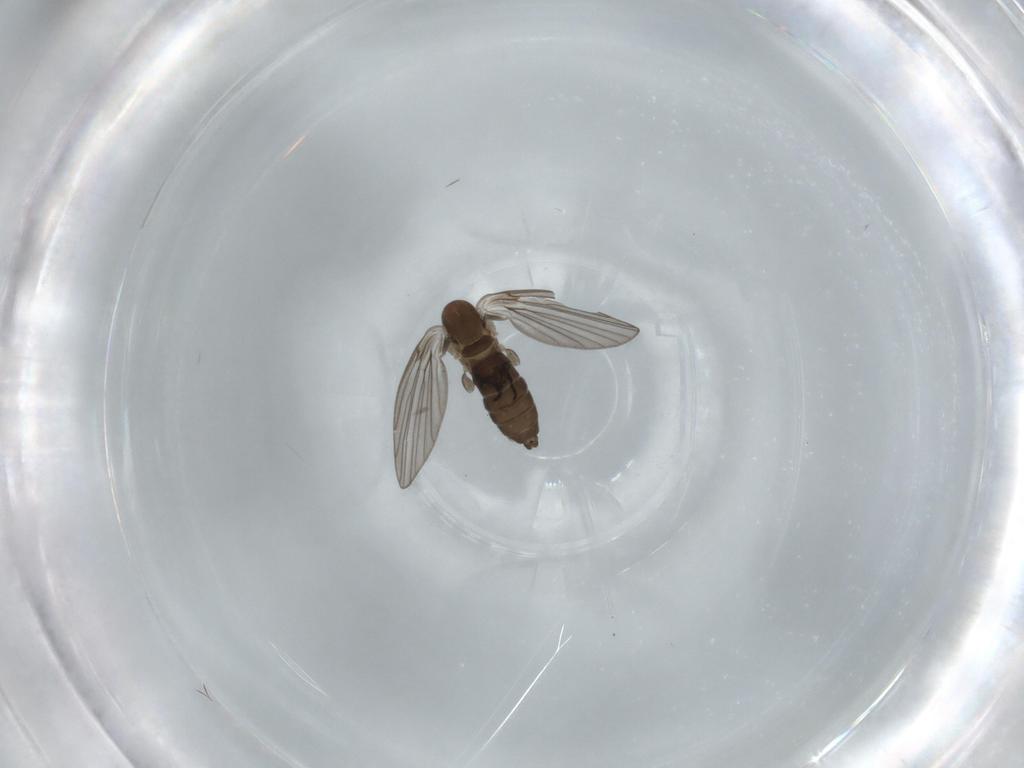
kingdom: Animalia
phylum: Arthropoda
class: Insecta
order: Diptera
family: Psychodidae
